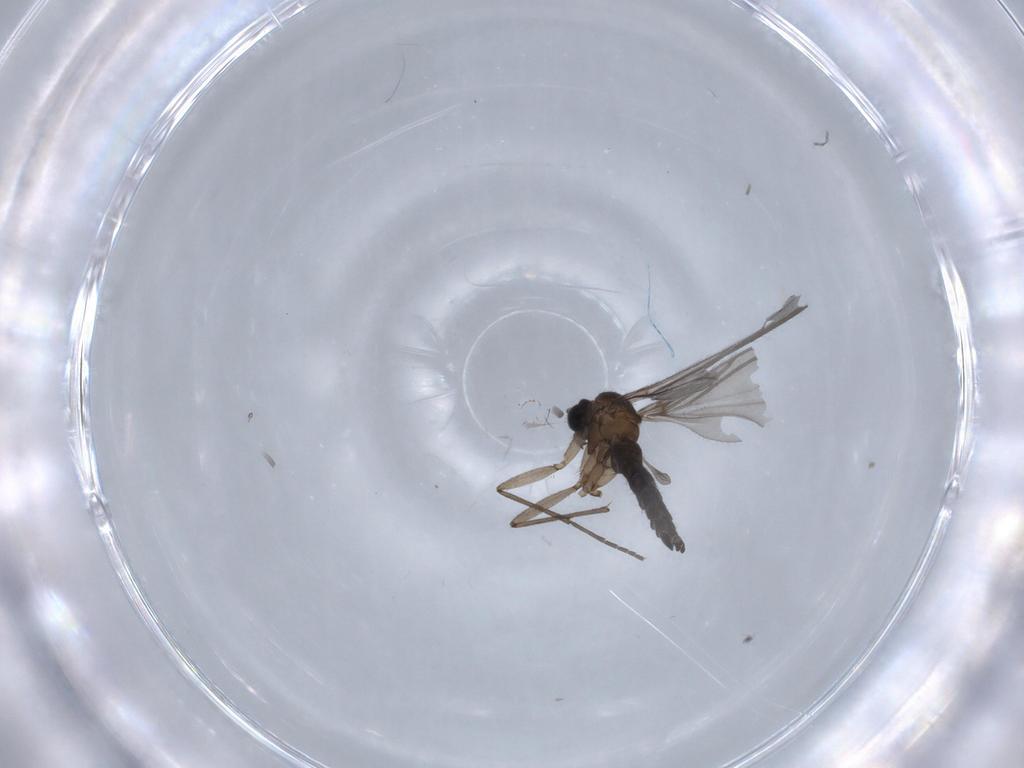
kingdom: Animalia
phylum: Arthropoda
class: Insecta
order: Diptera
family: Sciaridae
